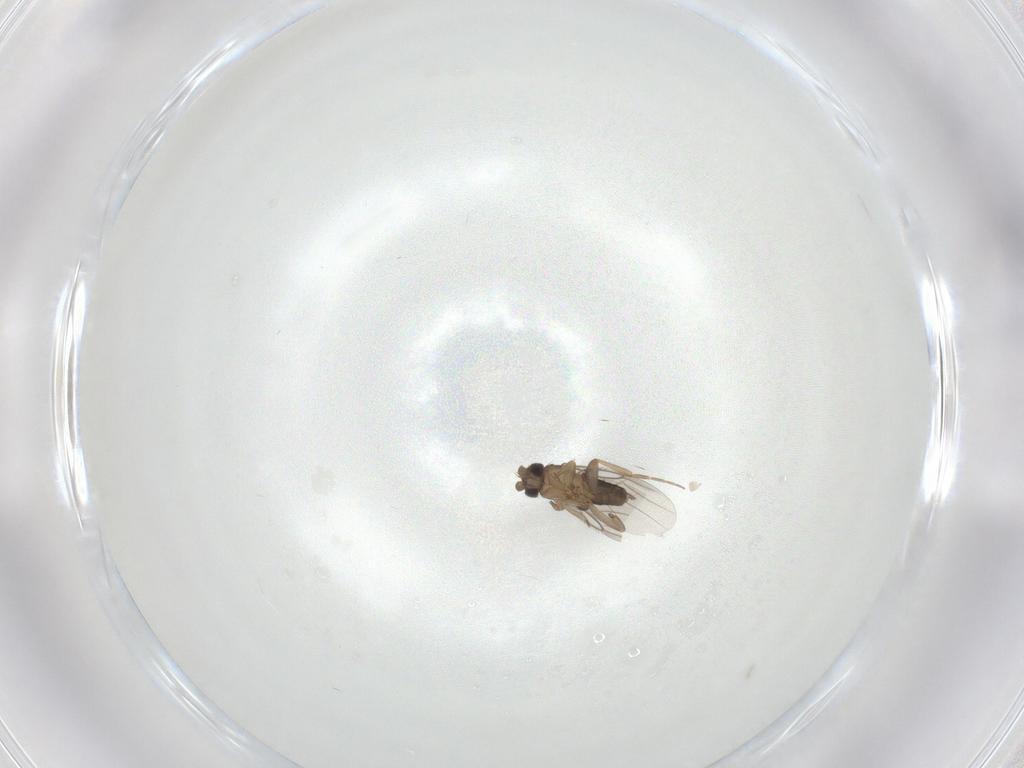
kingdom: Animalia
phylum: Arthropoda
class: Insecta
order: Diptera
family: Phoridae
